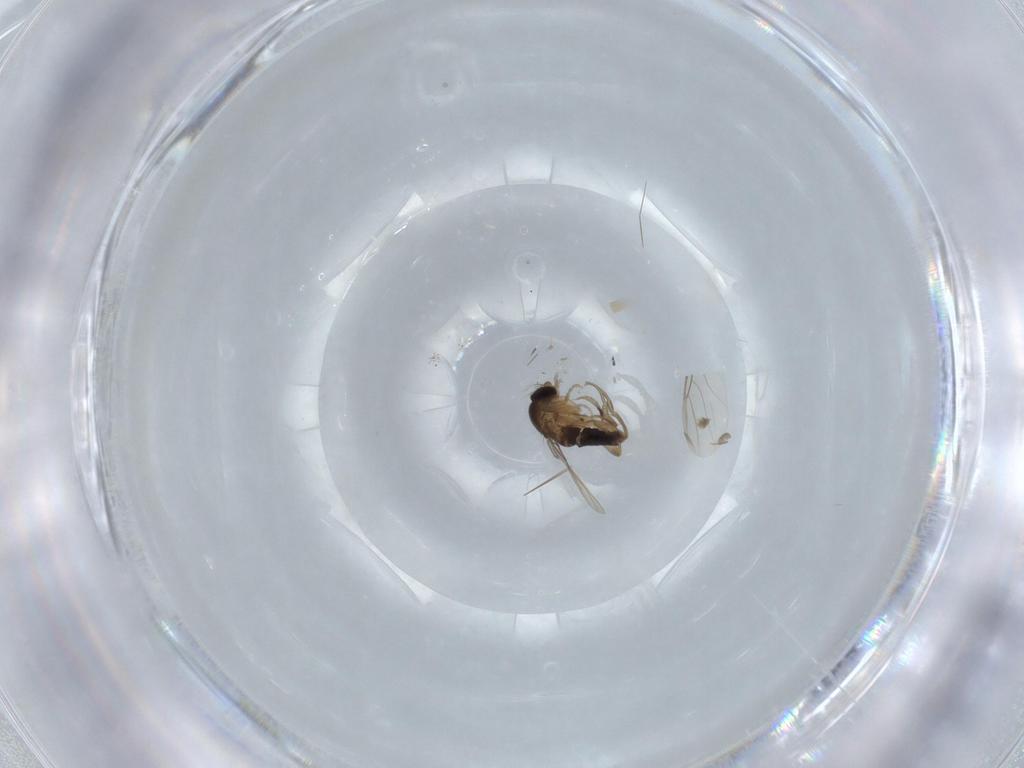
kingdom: Animalia
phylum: Arthropoda
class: Insecta
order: Diptera
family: Cecidomyiidae
